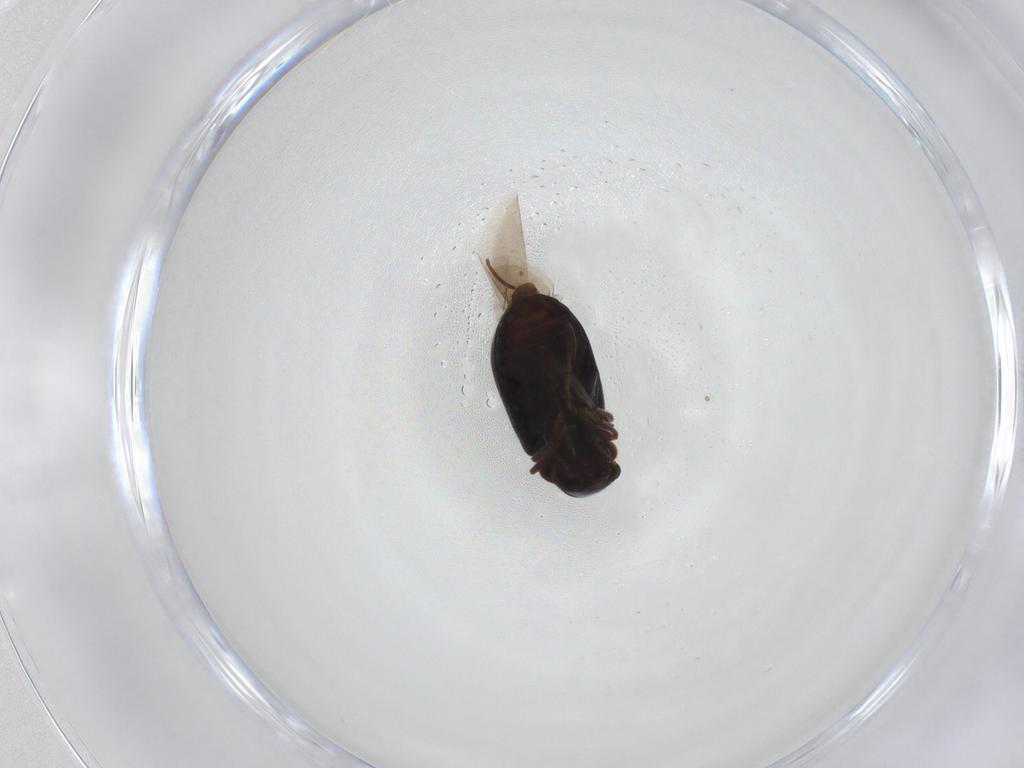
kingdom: Animalia
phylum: Arthropoda
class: Insecta
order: Coleoptera
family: Ptinidae
